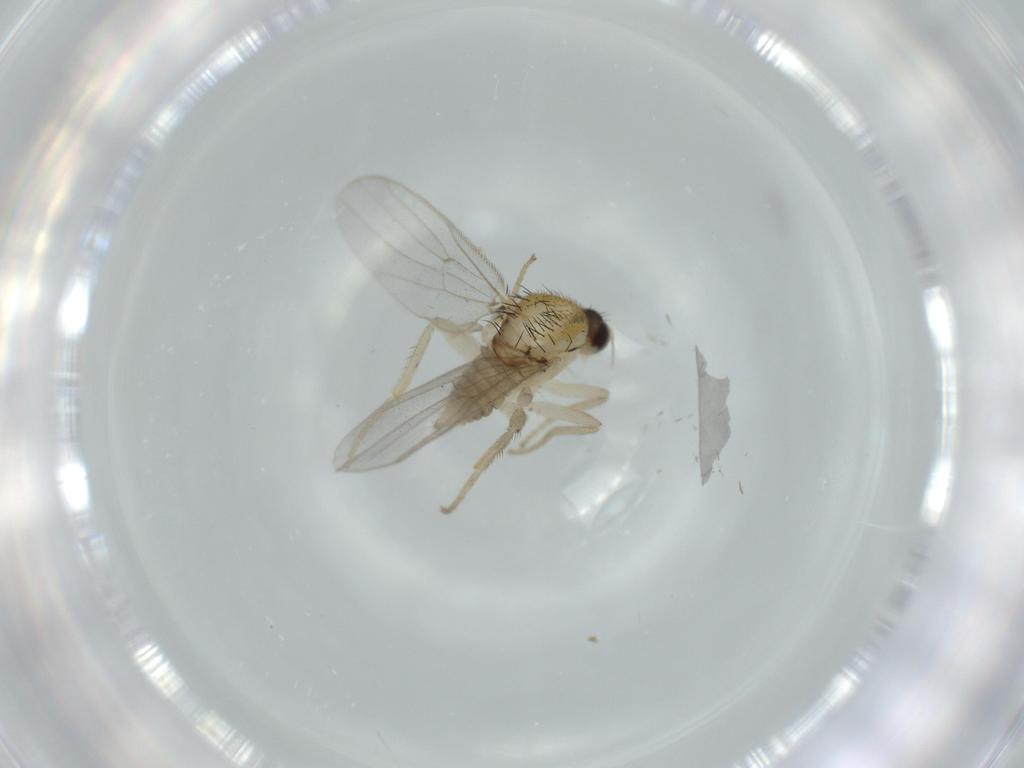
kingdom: Animalia
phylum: Arthropoda
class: Insecta
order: Diptera
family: Hybotidae
